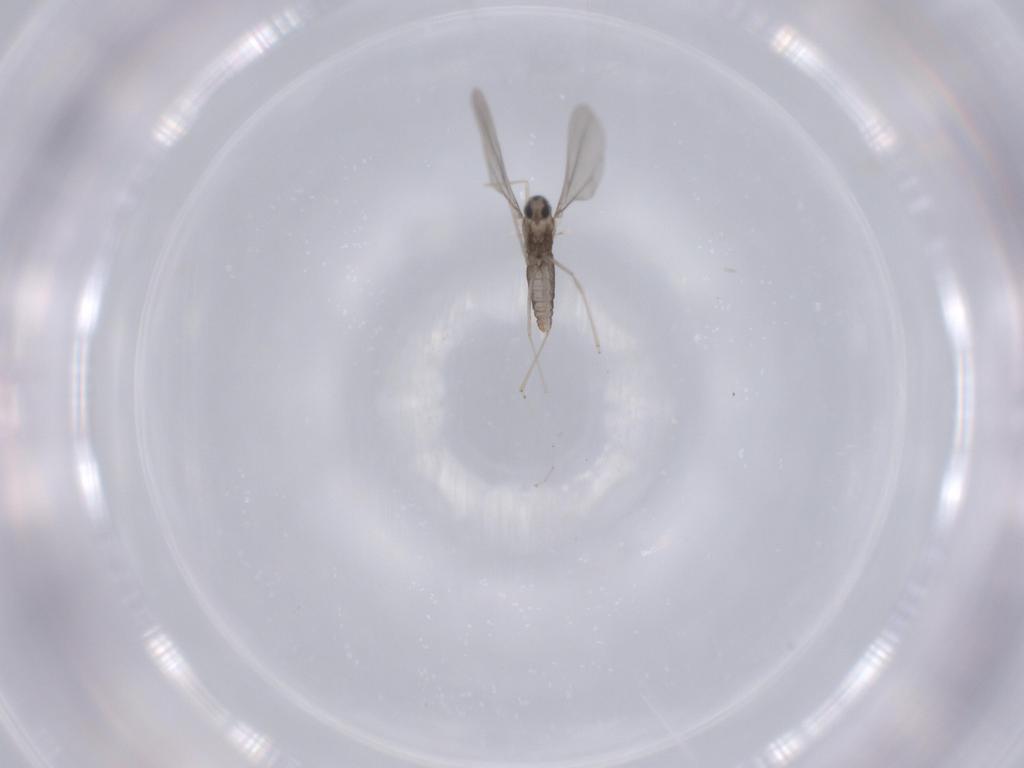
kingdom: Animalia
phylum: Arthropoda
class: Insecta
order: Diptera
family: Cecidomyiidae
